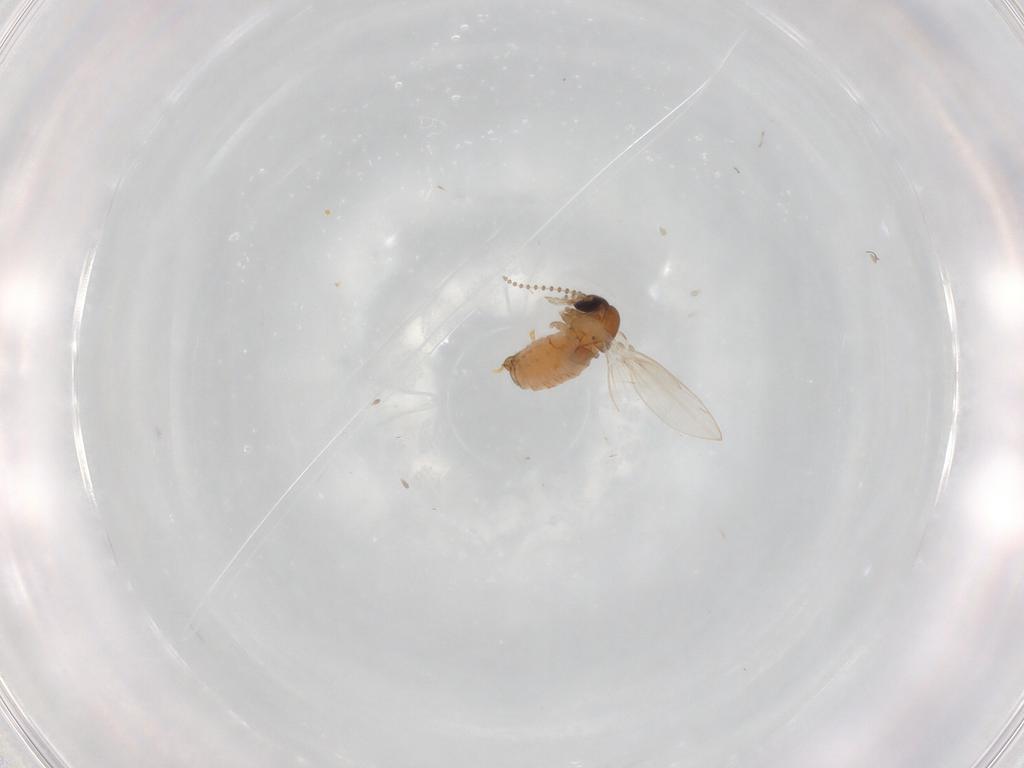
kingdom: Animalia
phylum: Arthropoda
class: Insecta
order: Diptera
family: Psychodidae
